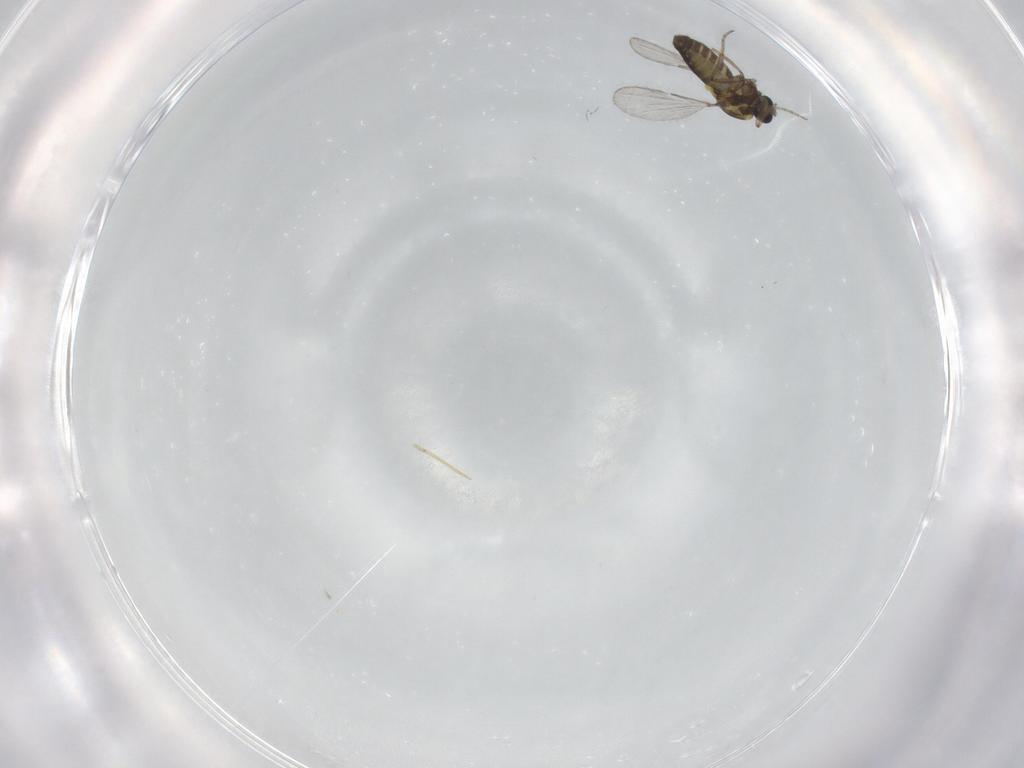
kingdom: Animalia
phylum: Arthropoda
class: Insecta
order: Diptera
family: Ceratopogonidae
